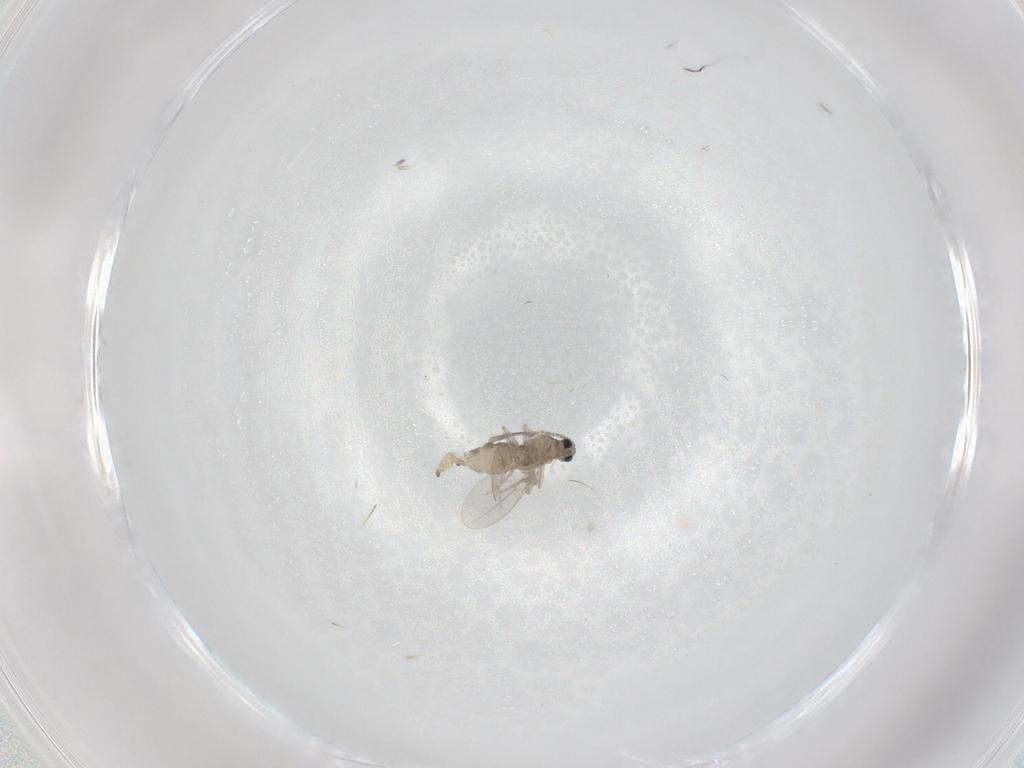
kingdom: Animalia
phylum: Arthropoda
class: Insecta
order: Diptera
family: Cecidomyiidae
